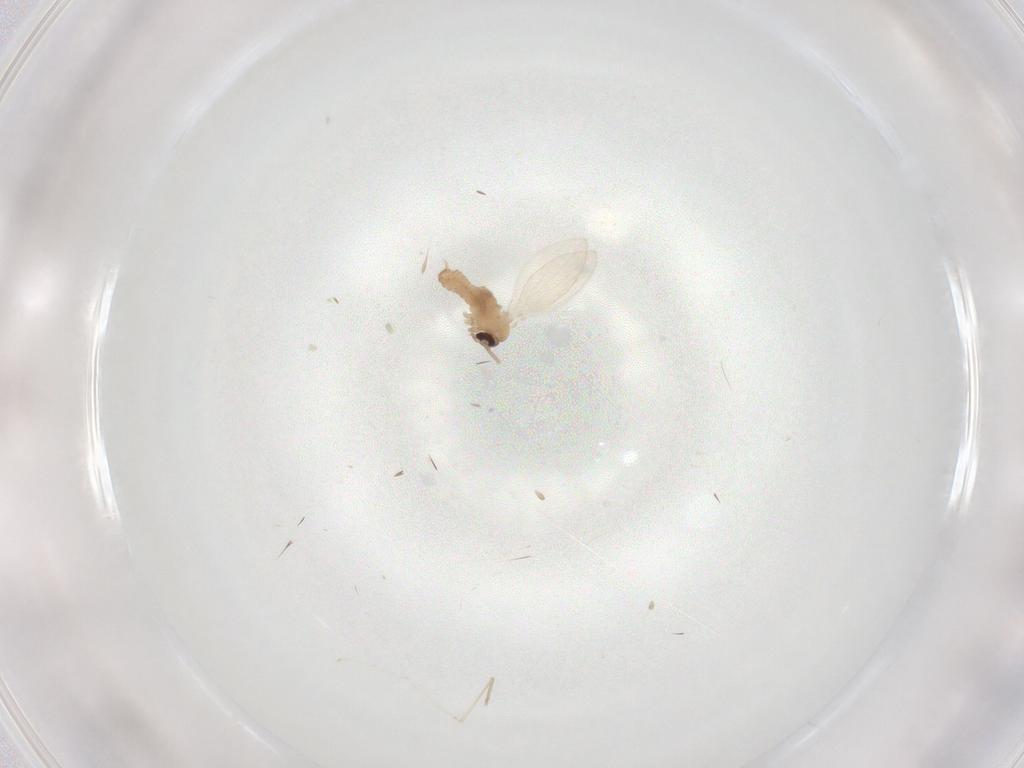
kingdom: Animalia
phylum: Arthropoda
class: Insecta
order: Diptera
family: Psychodidae
